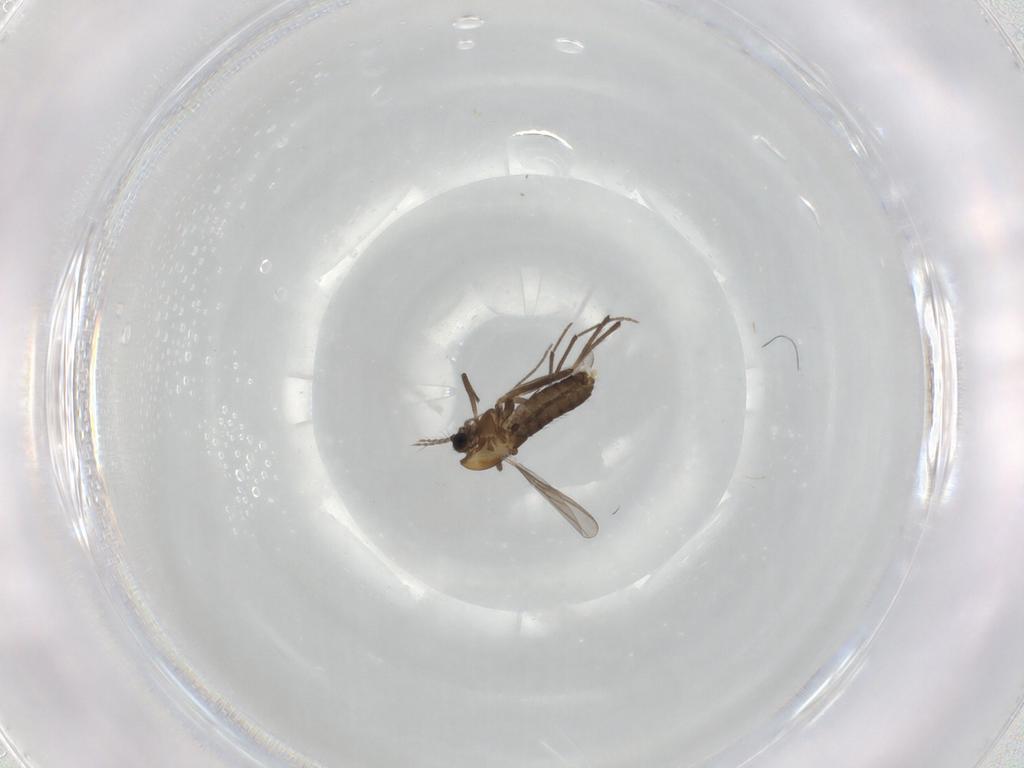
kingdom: Animalia
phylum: Arthropoda
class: Insecta
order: Diptera
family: Chironomidae
